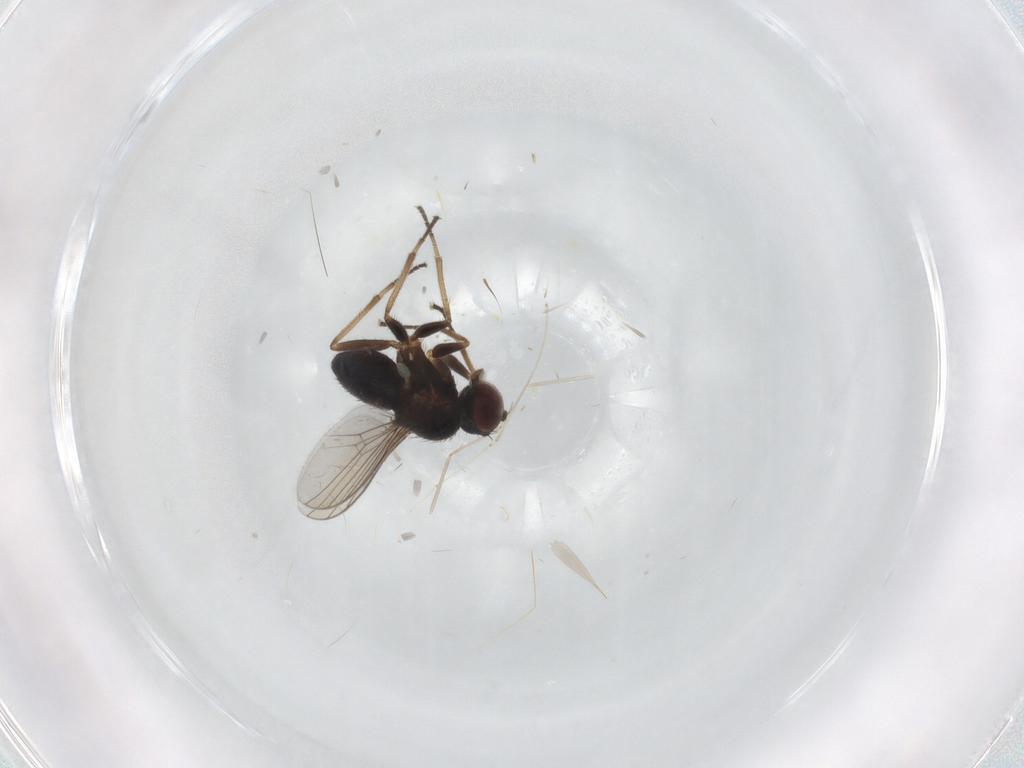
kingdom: Animalia
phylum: Arthropoda
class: Insecta
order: Diptera
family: Dolichopodidae
